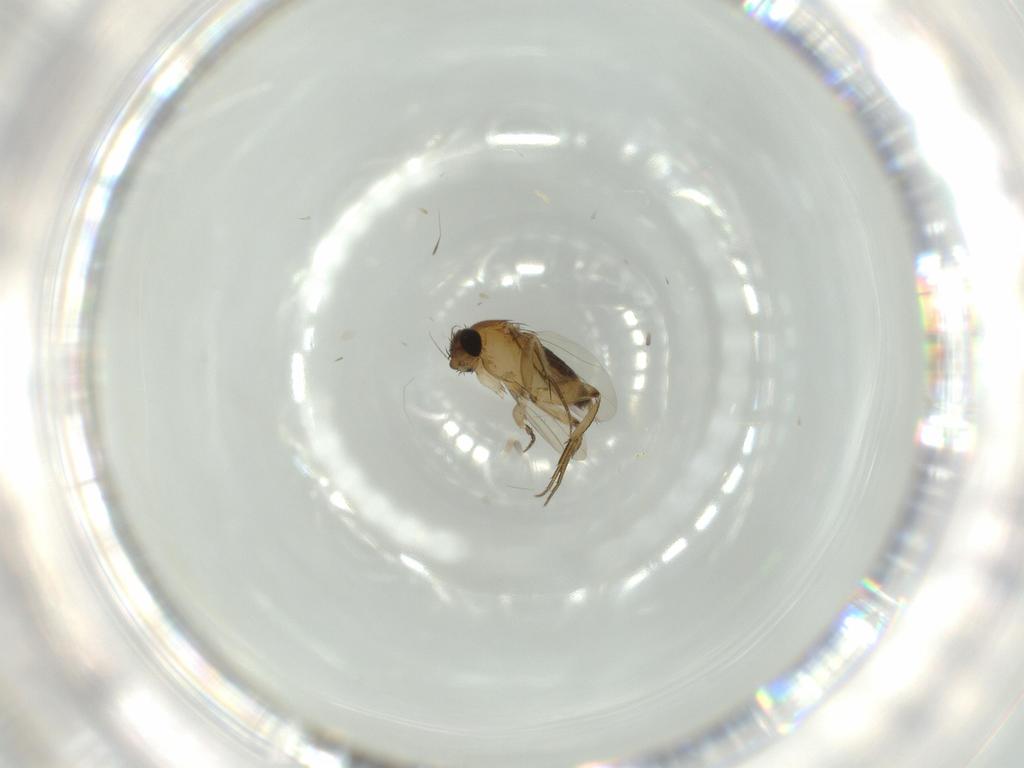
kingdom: Animalia
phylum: Arthropoda
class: Insecta
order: Diptera
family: Phoridae
